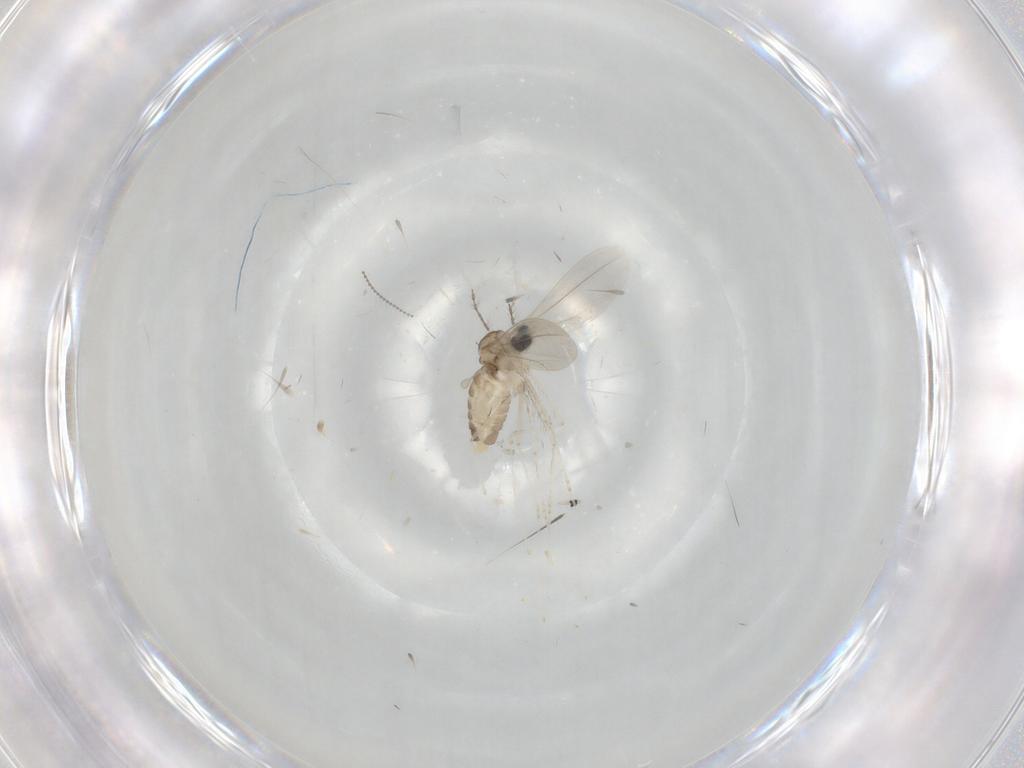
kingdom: Animalia
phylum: Arthropoda
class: Insecta
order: Diptera
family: Cecidomyiidae
